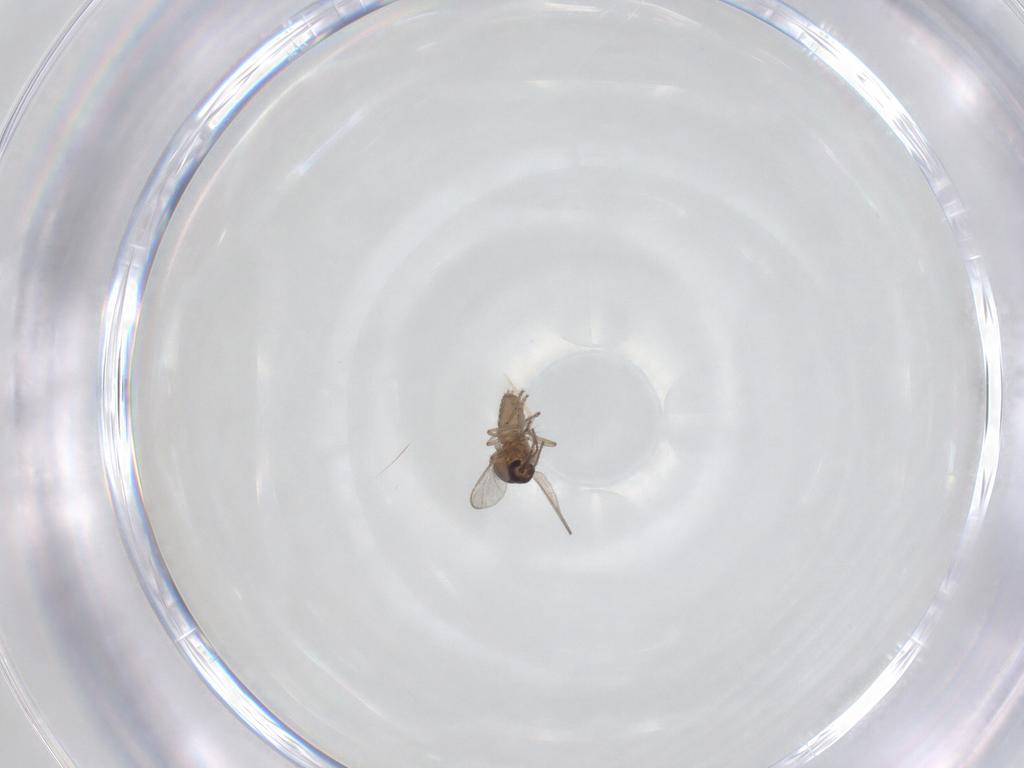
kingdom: Animalia
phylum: Arthropoda
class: Insecta
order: Diptera
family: Ceratopogonidae
